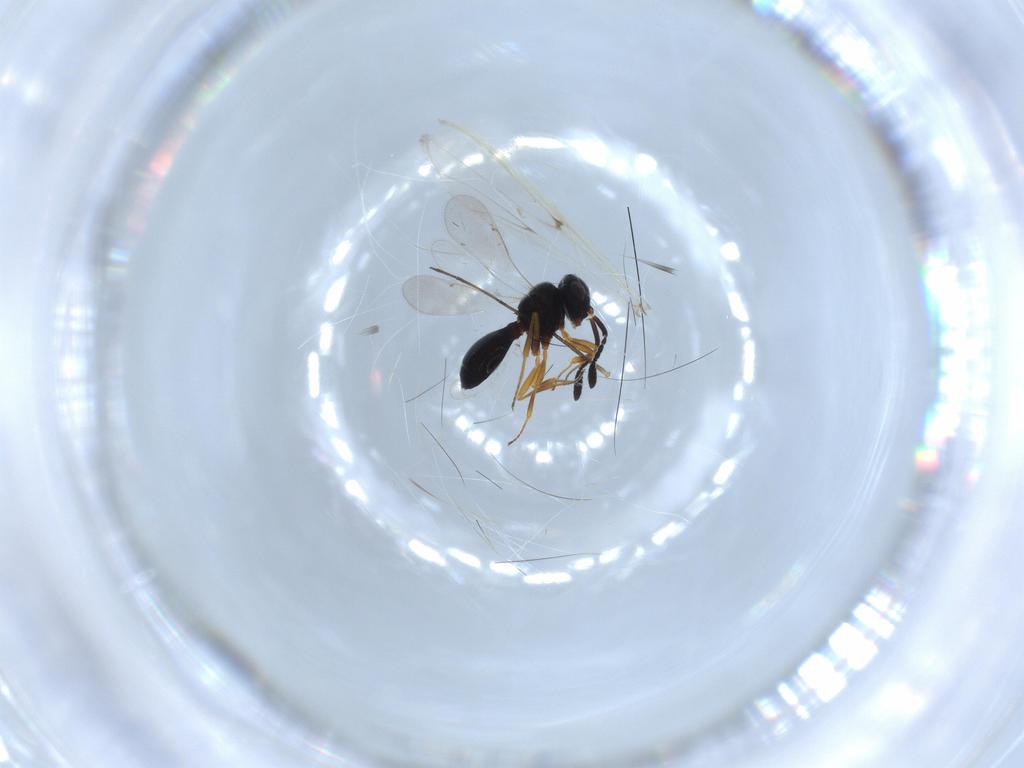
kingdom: Animalia
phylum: Arthropoda
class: Insecta
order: Hymenoptera
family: Scelionidae
